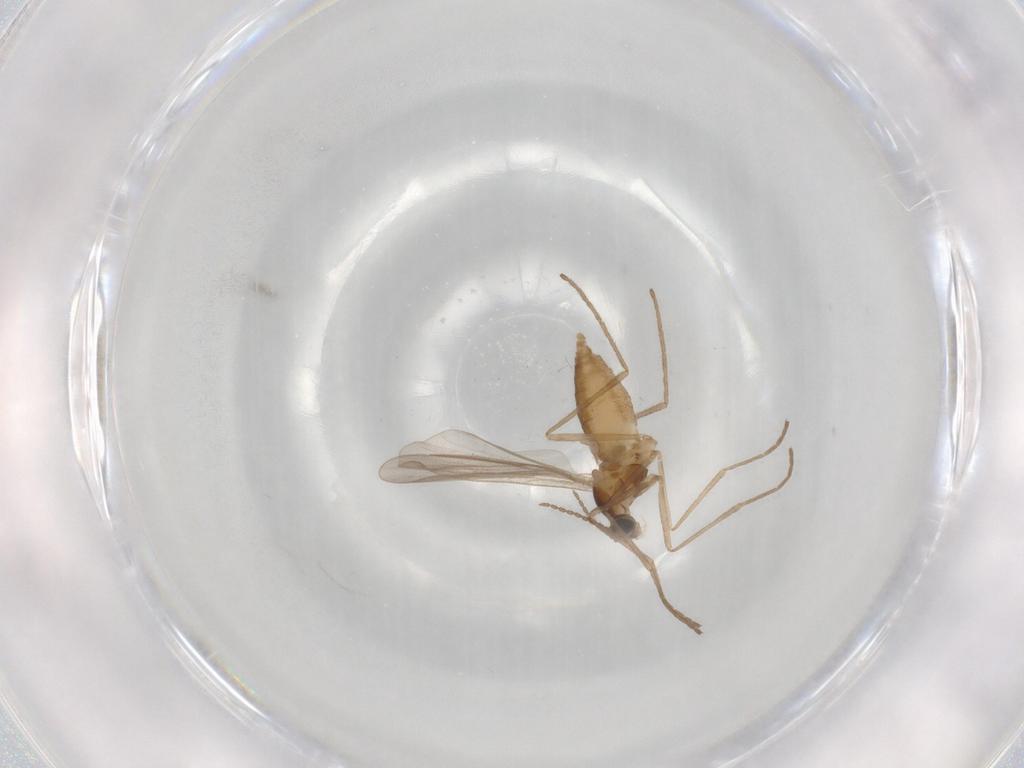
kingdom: Animalia
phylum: Arthropoda
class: Insecta
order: Diptera
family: Cecidomyiidae
